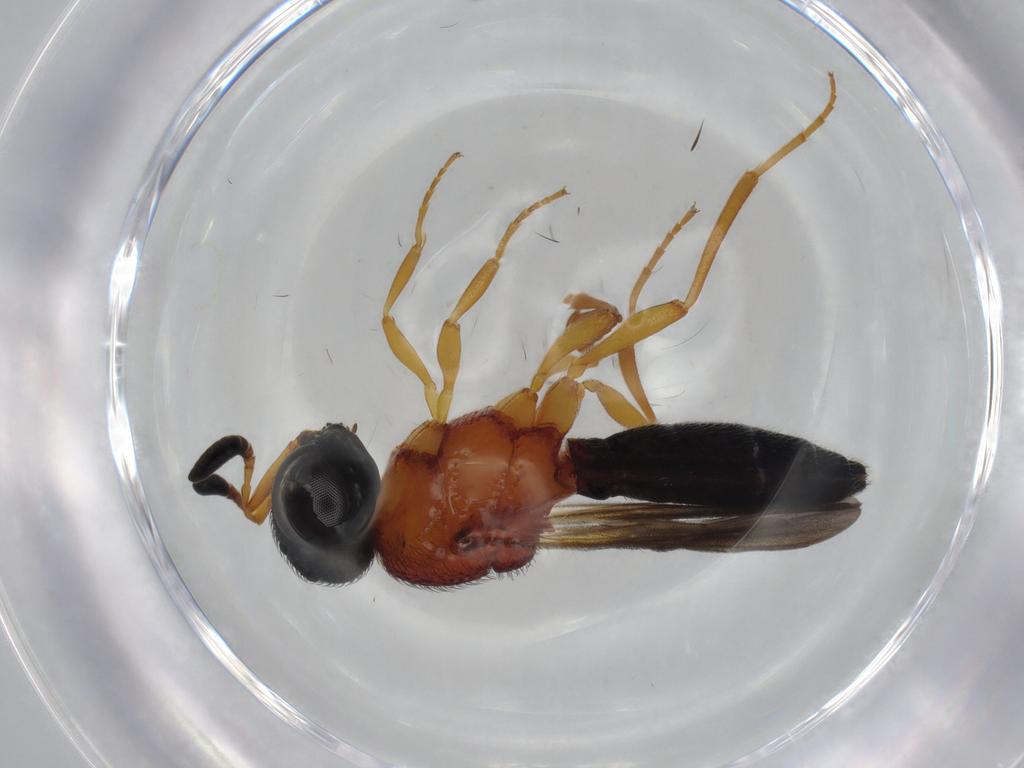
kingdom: Animalia
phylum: Arthropoda
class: Insecta
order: Hymenoptera
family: Scelionidae
